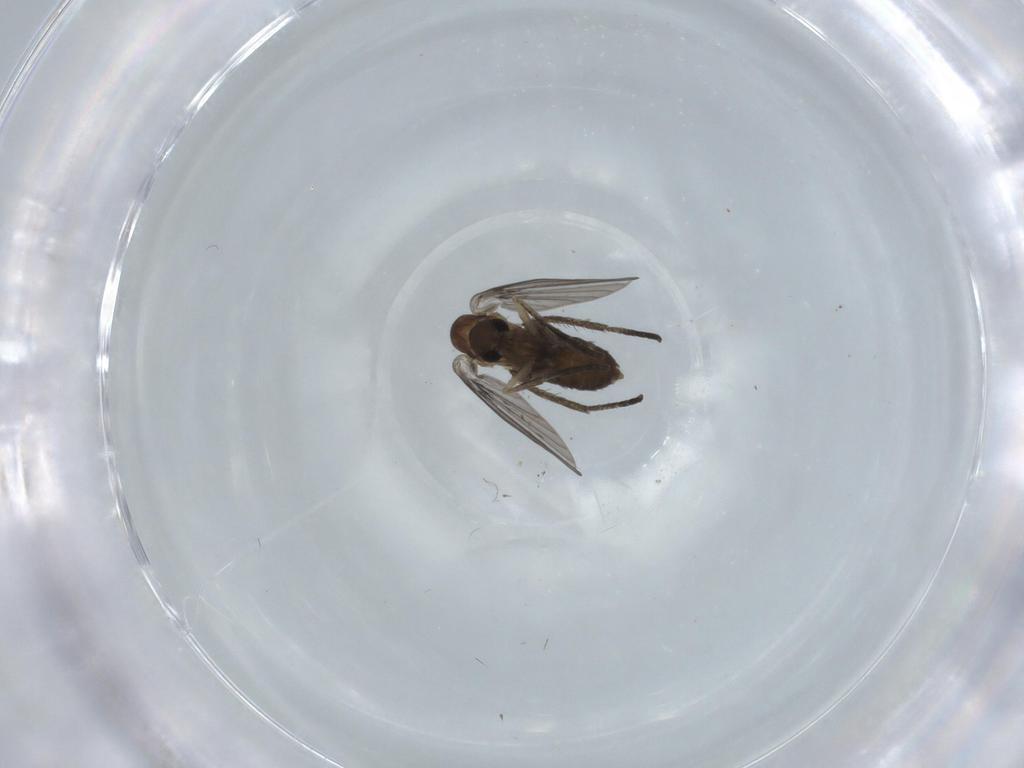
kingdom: Animalia
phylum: Arthropoda
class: Insecta
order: Diptera
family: Psychodidae
